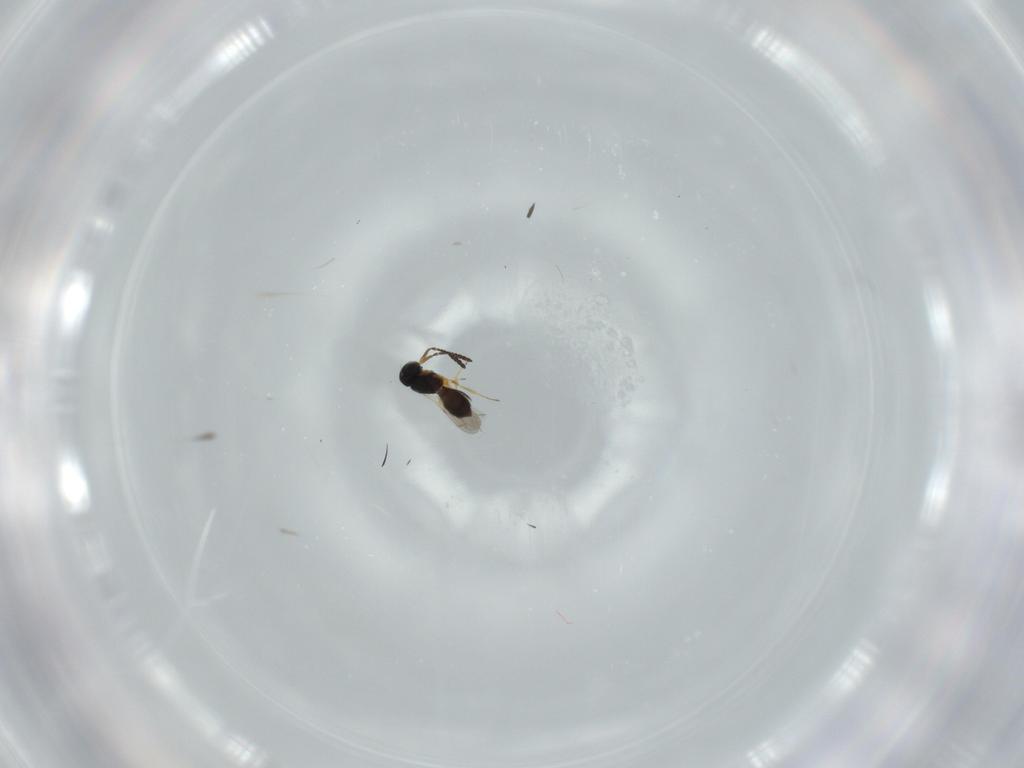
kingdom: Animalia
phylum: Arthropoda
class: Insecta
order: Hymenoptera
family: Scelionidae
